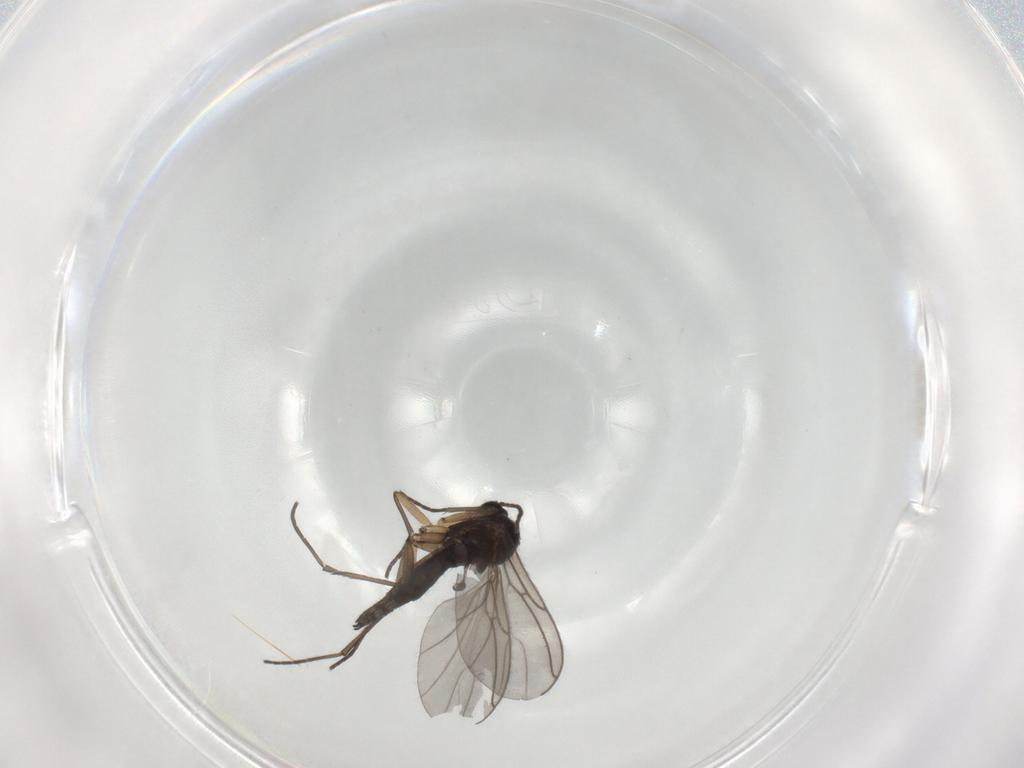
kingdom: Animalia
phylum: Arthropoda
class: Insecta
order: Diptera
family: Sciaridae
